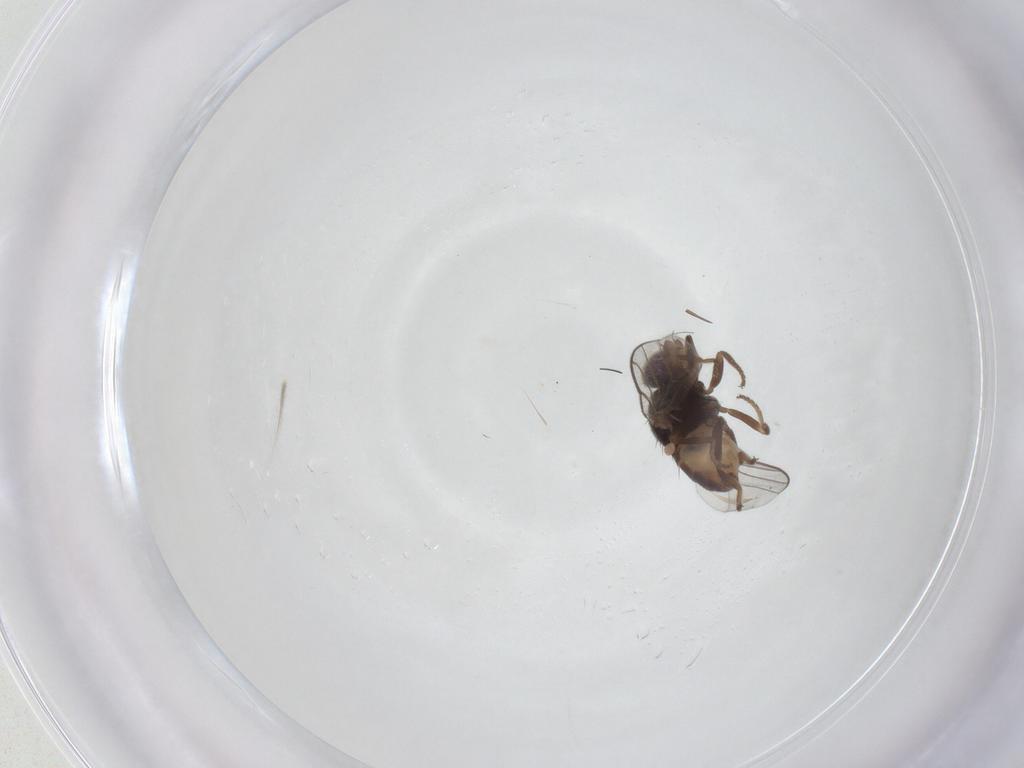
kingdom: Animalia
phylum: Arthropoda
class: Insecta
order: Diptera
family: Chloropidae
